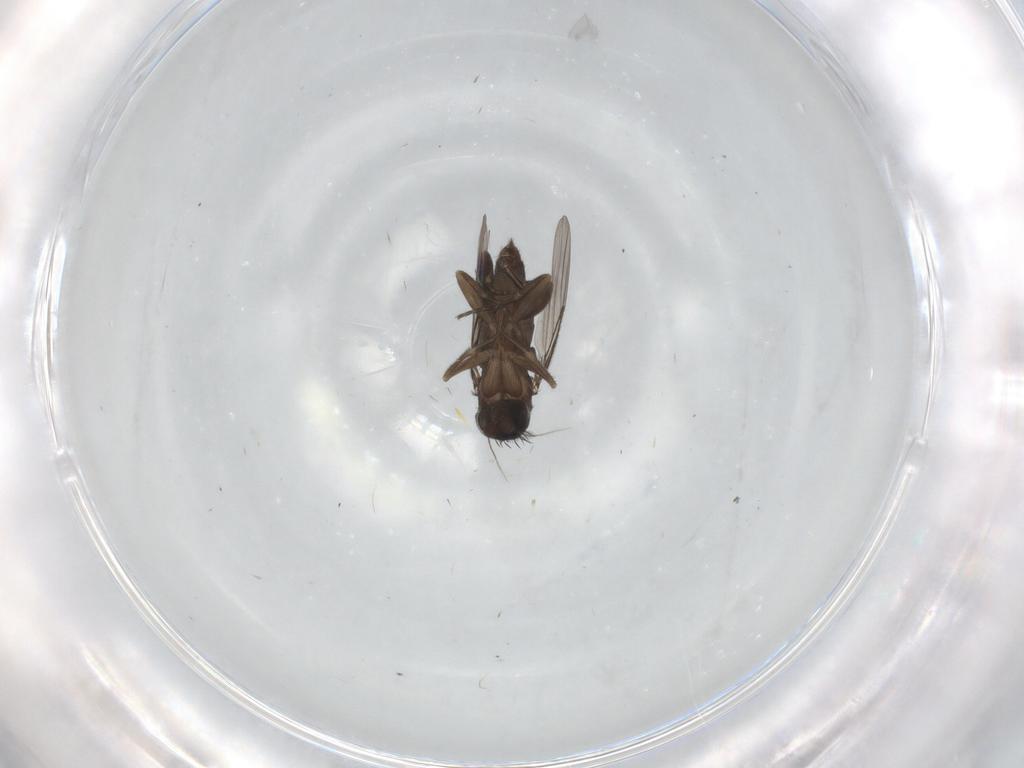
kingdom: Animalia
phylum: Arthropoda
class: Insecta
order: Diptera
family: Phoridae
